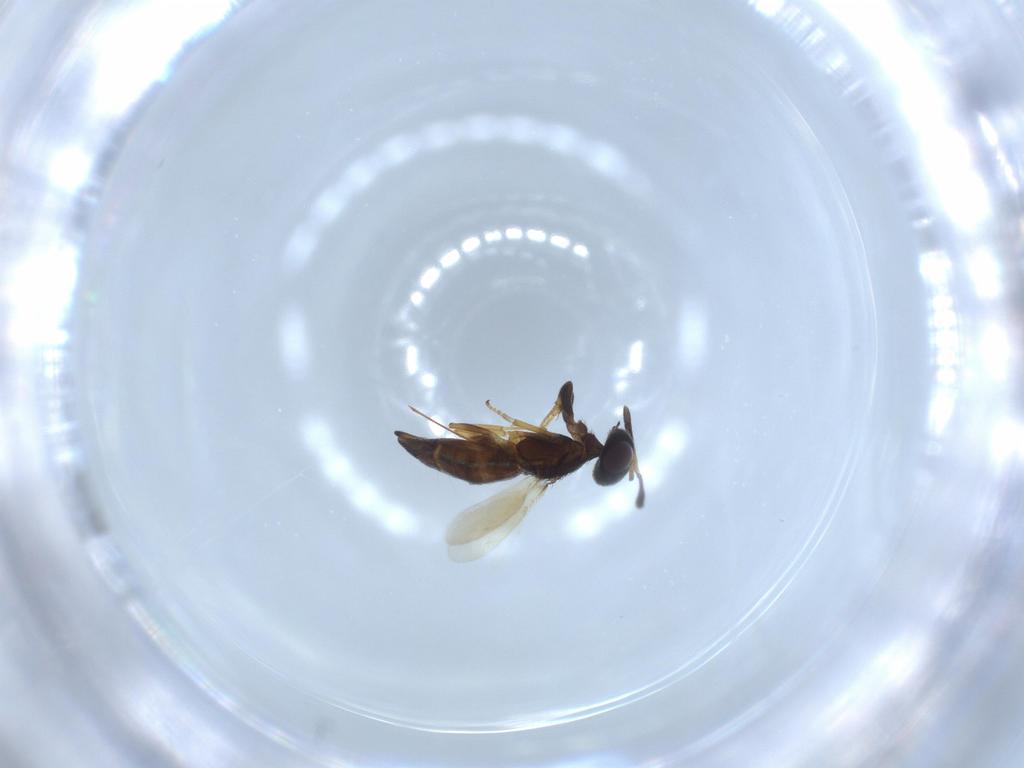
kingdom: Animalia
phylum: Arthropoda
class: Insecta
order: Hymenoptera
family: Eupelmidae
